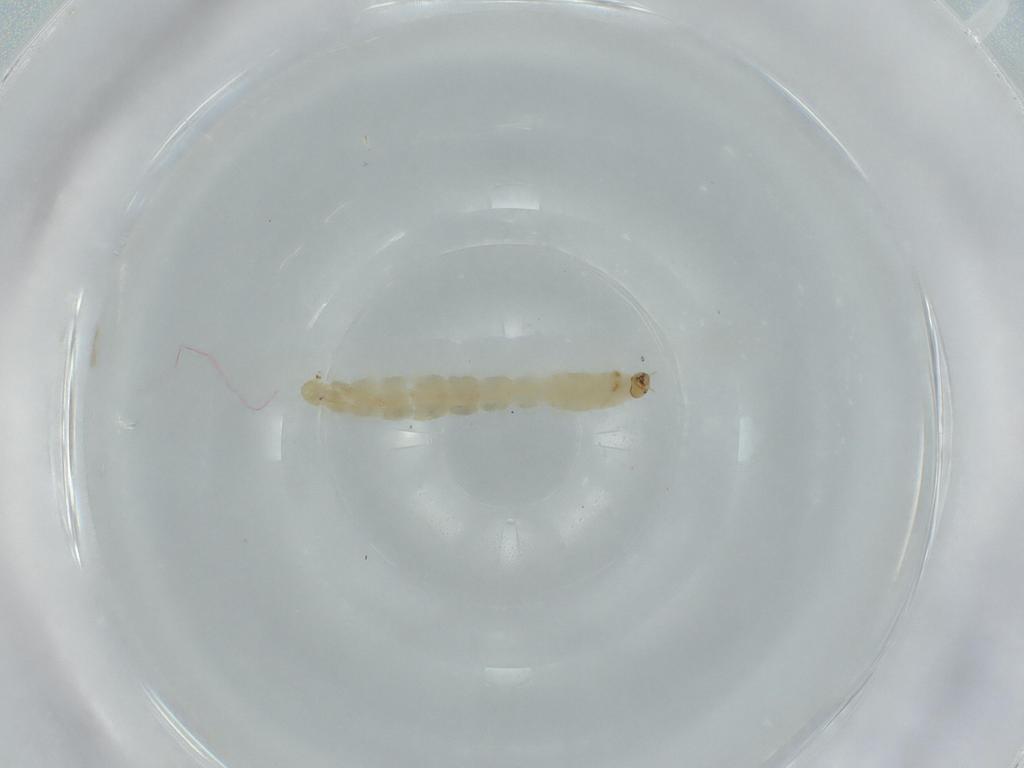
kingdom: Animalia
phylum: Arthropoda
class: Insecta
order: Diptera
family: Chironomidae
